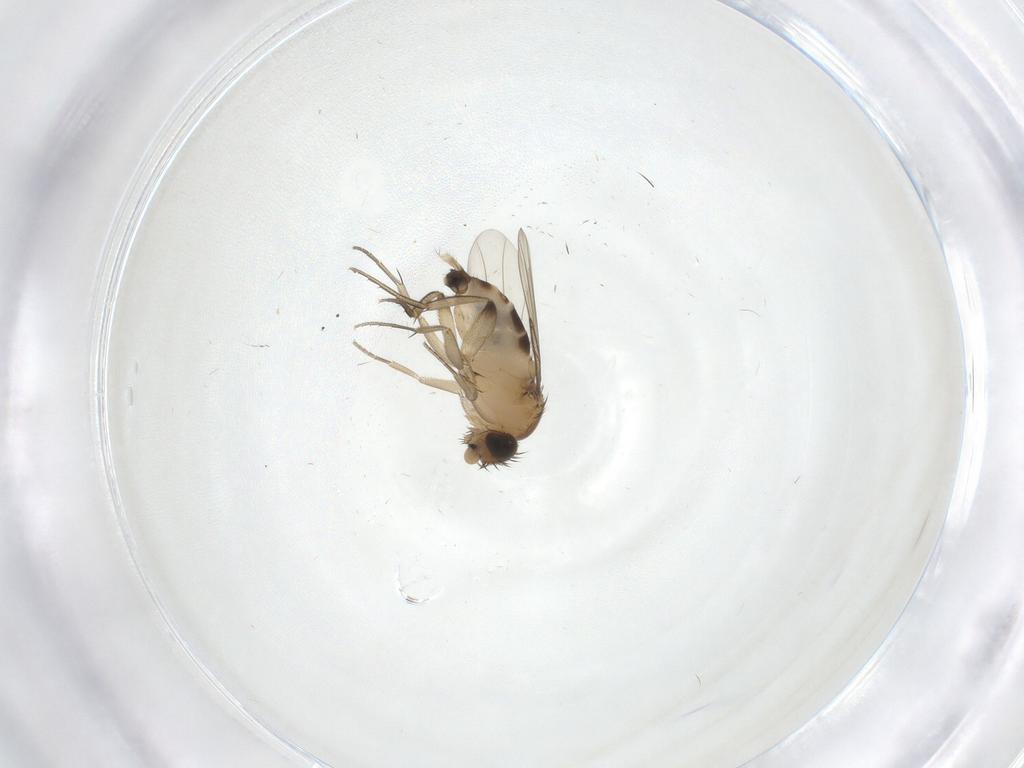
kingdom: Animalia
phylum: Arthropoda
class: Insecta
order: Diptera
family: Phoridae
